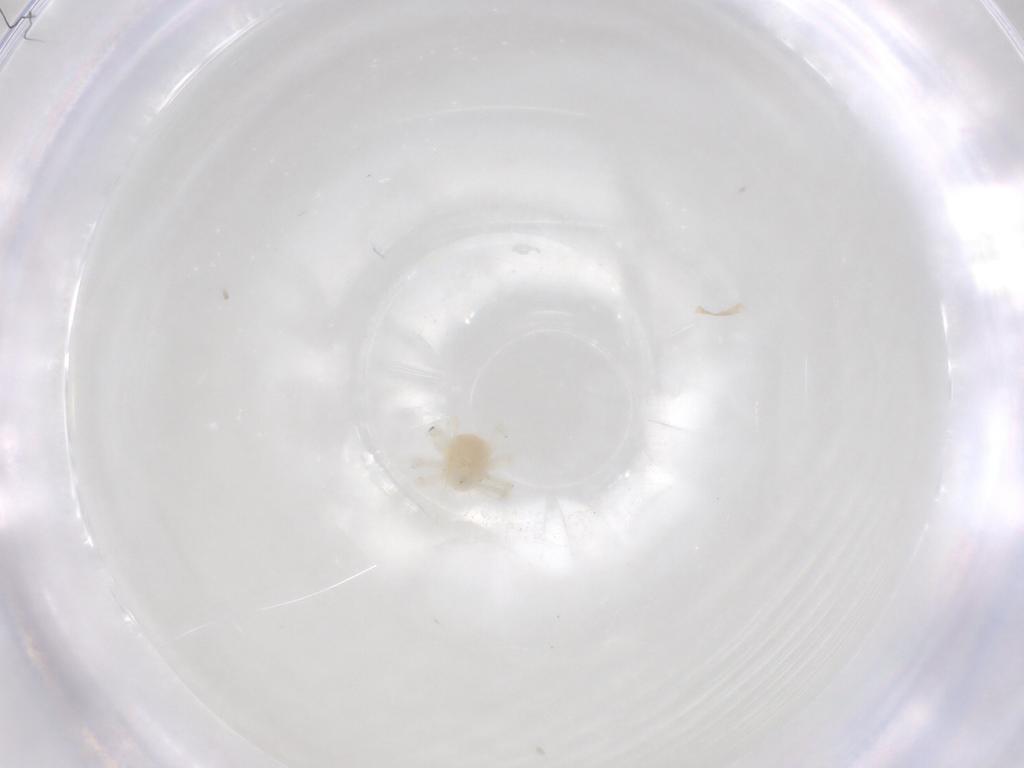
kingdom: Animalia
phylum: Arthropoda
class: Arachnida
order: Trombidiformes
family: Anystidae
